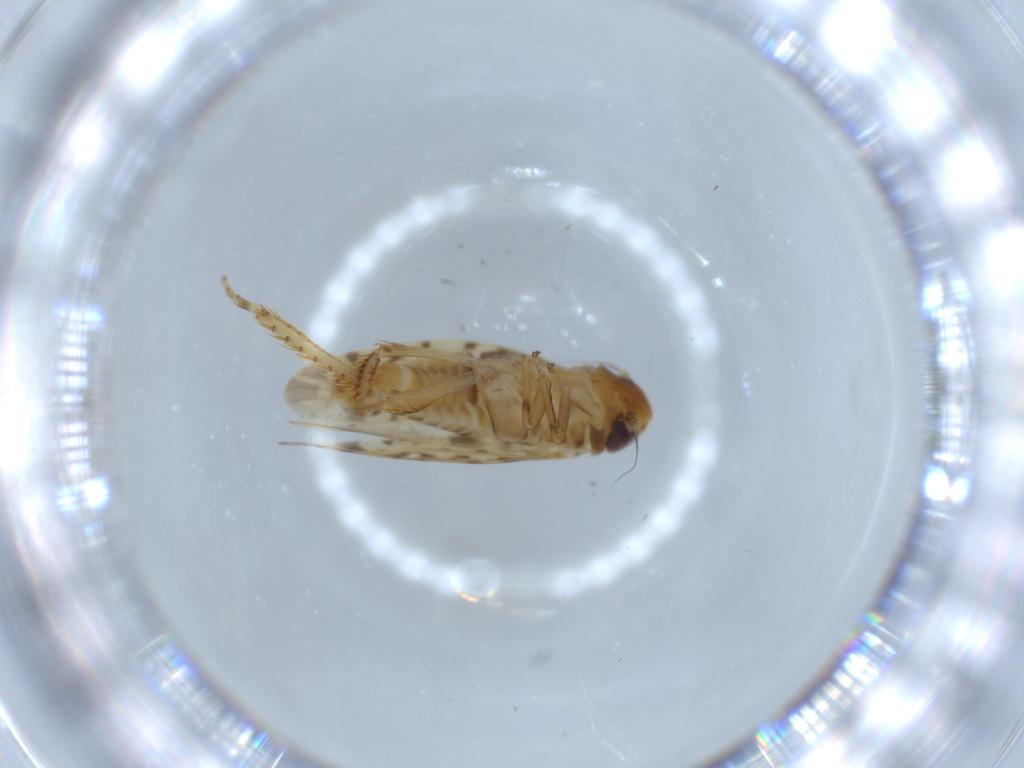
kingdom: Animalia
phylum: Arthropoda
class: Insecta
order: Hemiptera
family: Cicadellidae
